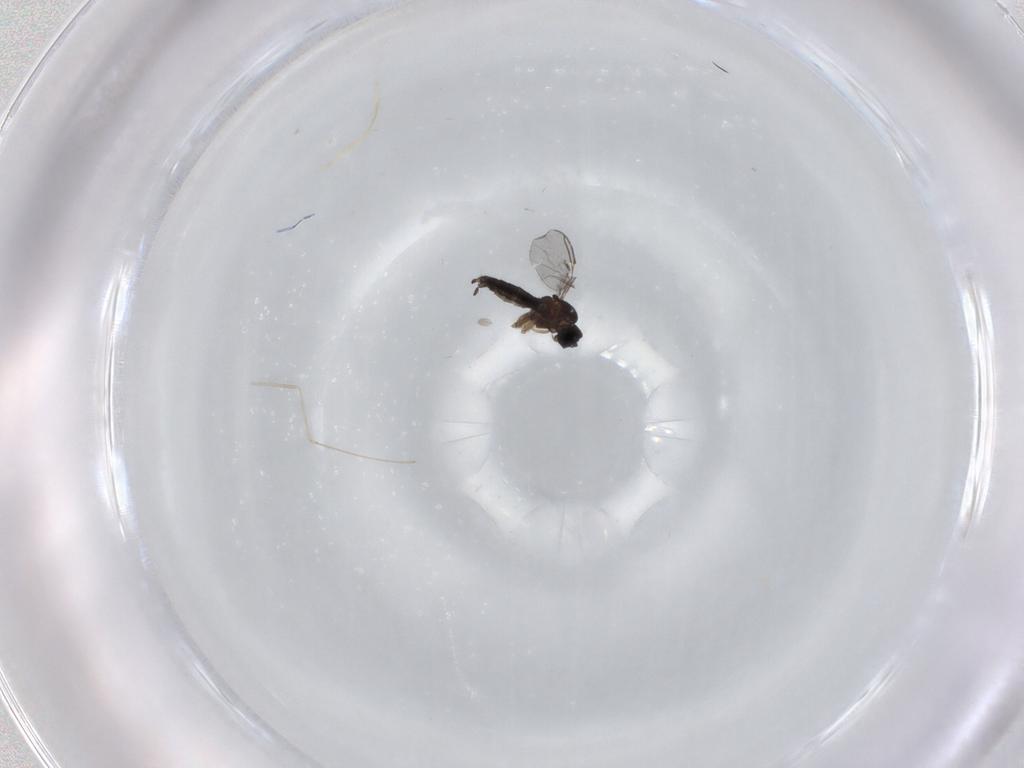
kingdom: Animalia
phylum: Arthropoda
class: Insecta
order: Diptera
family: Cecidomyiidae
